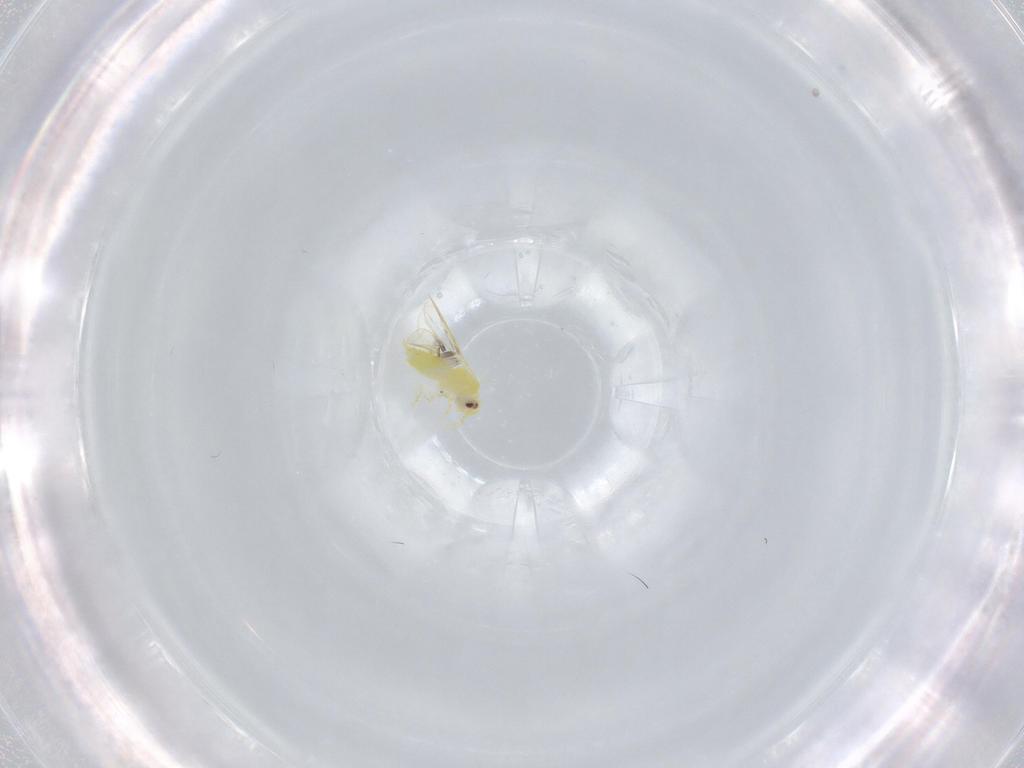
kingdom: Animalia
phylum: Arthropoda
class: Insecta
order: Hemiptera
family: Aleyrodidae
